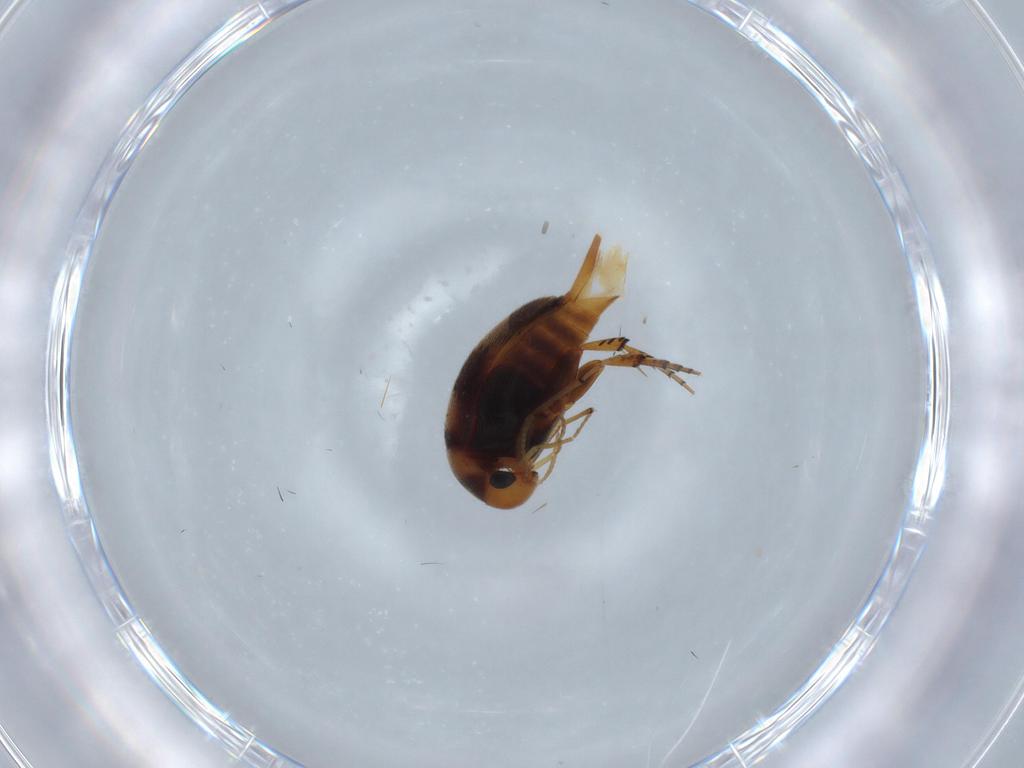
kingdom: Animalia
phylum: Arthropoda
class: Insecta
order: Coleoptera
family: Mordellidae
